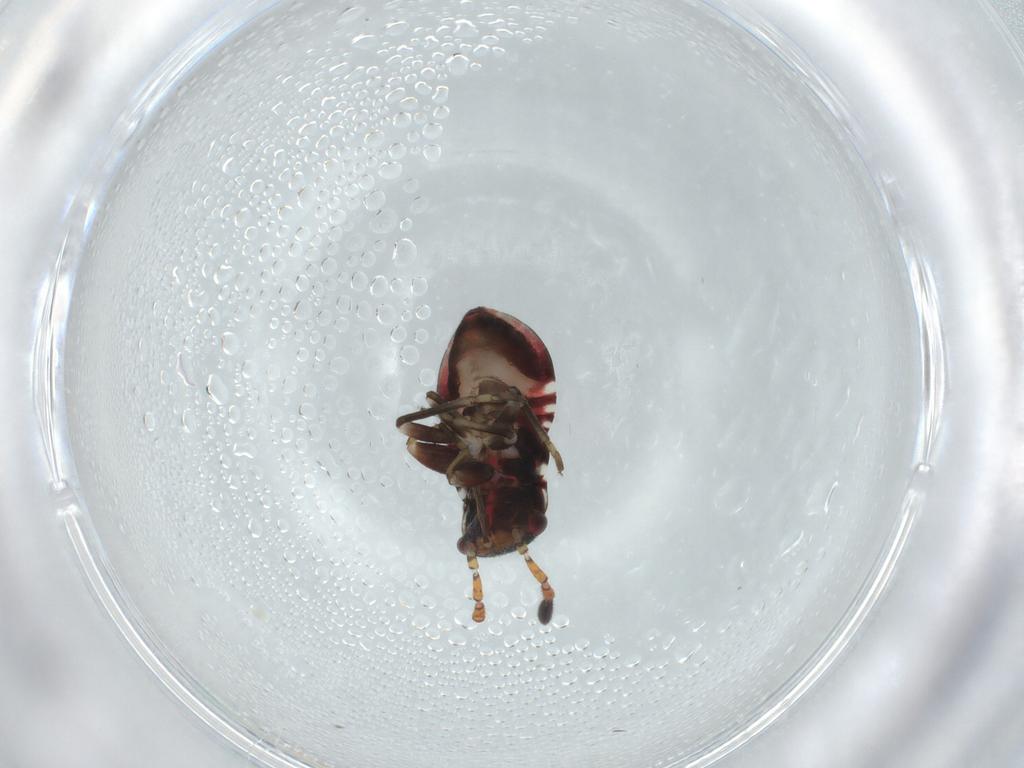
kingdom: Animalia
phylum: Arthropoda
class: Insecta
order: Hemiptera
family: Rhyparochromidae
